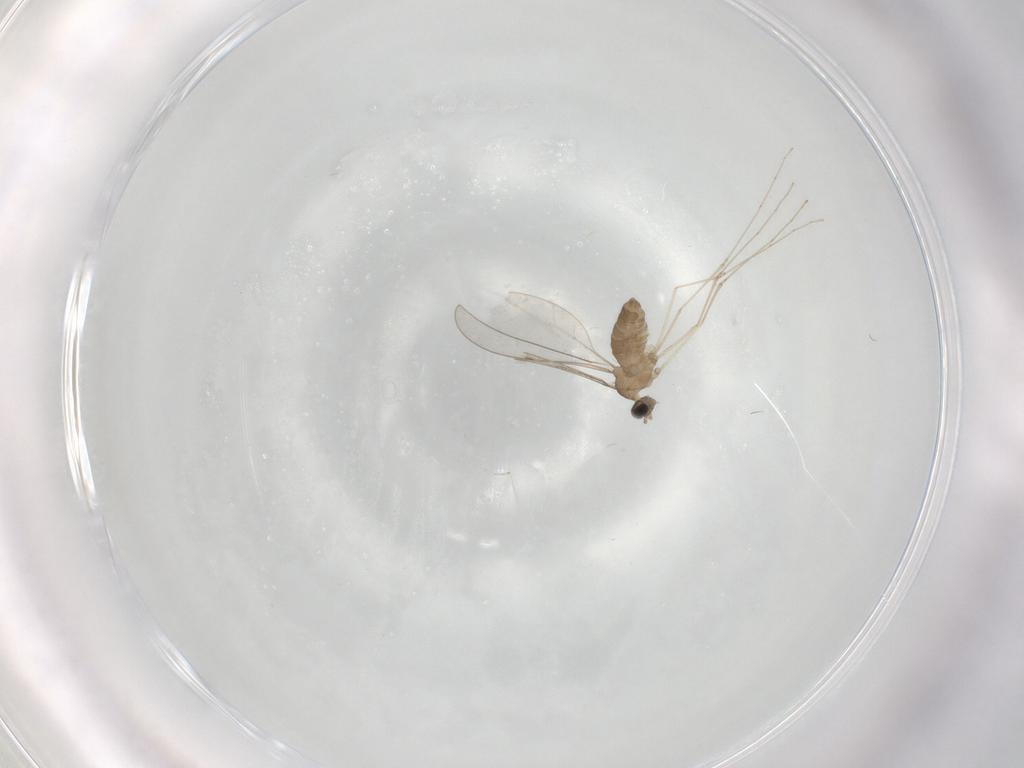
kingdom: Animalia
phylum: Arthropoda
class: Insecta
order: Diptera
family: Cecidomyiidae
